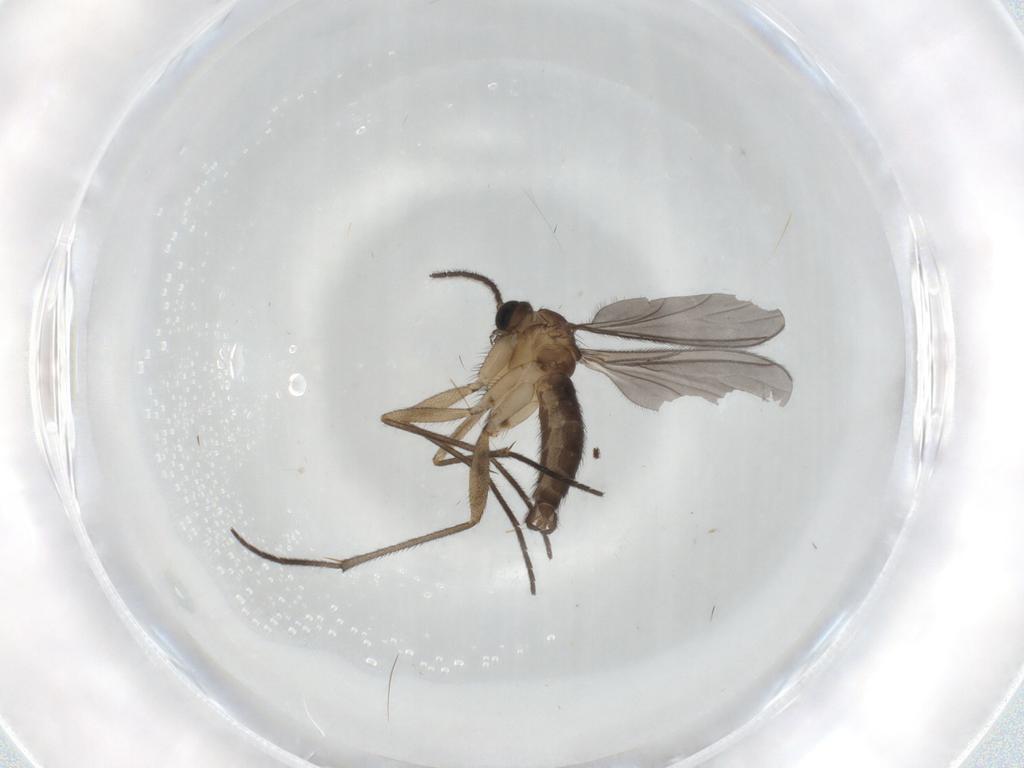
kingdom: Animalia
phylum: Arthropoda
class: Insecta
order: Diptera
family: Sciaridae
